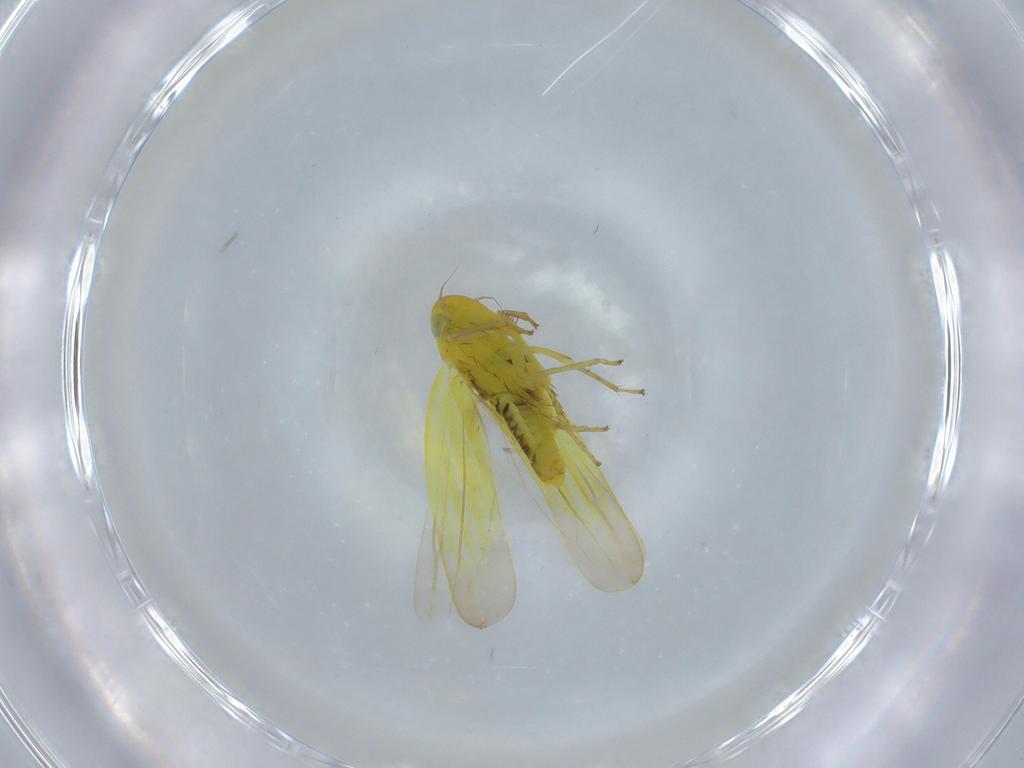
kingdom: Animalia
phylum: Arthropoda
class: Insecta
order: Hemiptera
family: Cicadellidae
